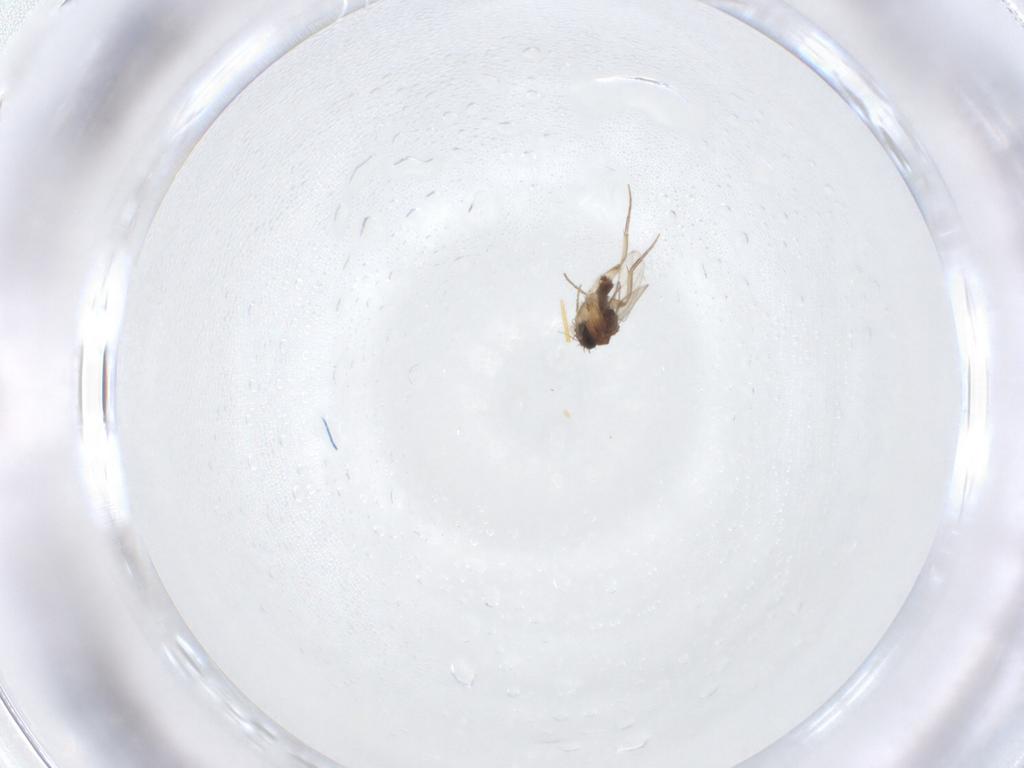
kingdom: Animalia
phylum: Arthropoda
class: Insecta
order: Diptera
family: Phoridae
